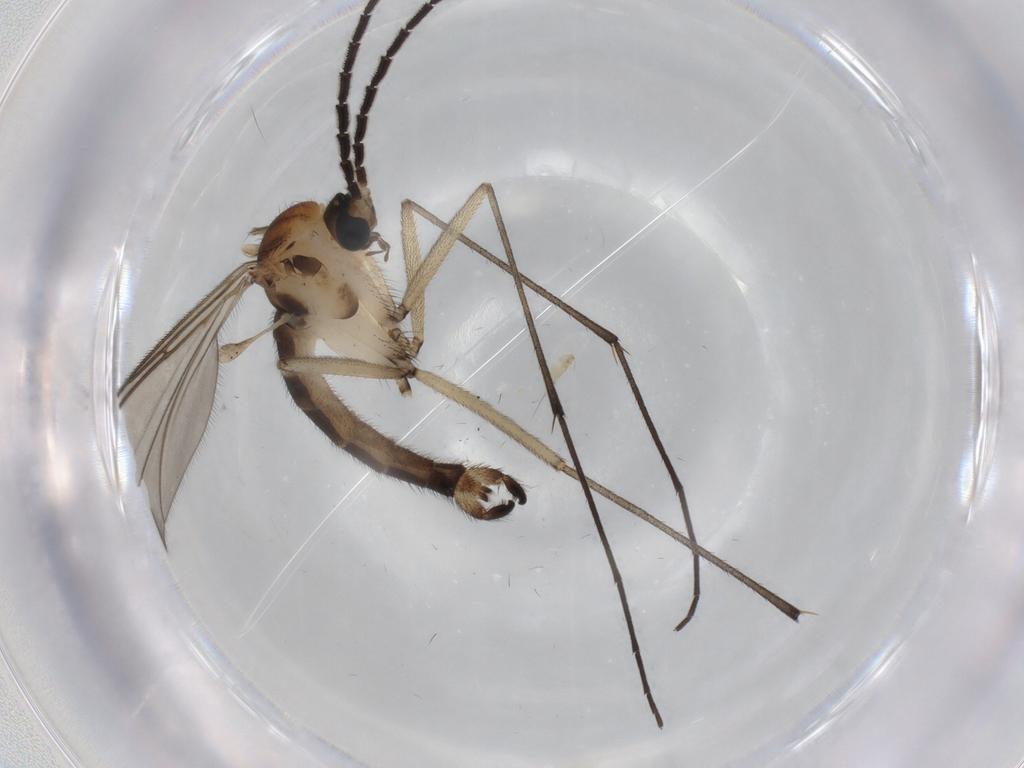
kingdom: Animalia
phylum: Arthropoda
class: Insecta
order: Diptera
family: Sciaridae
